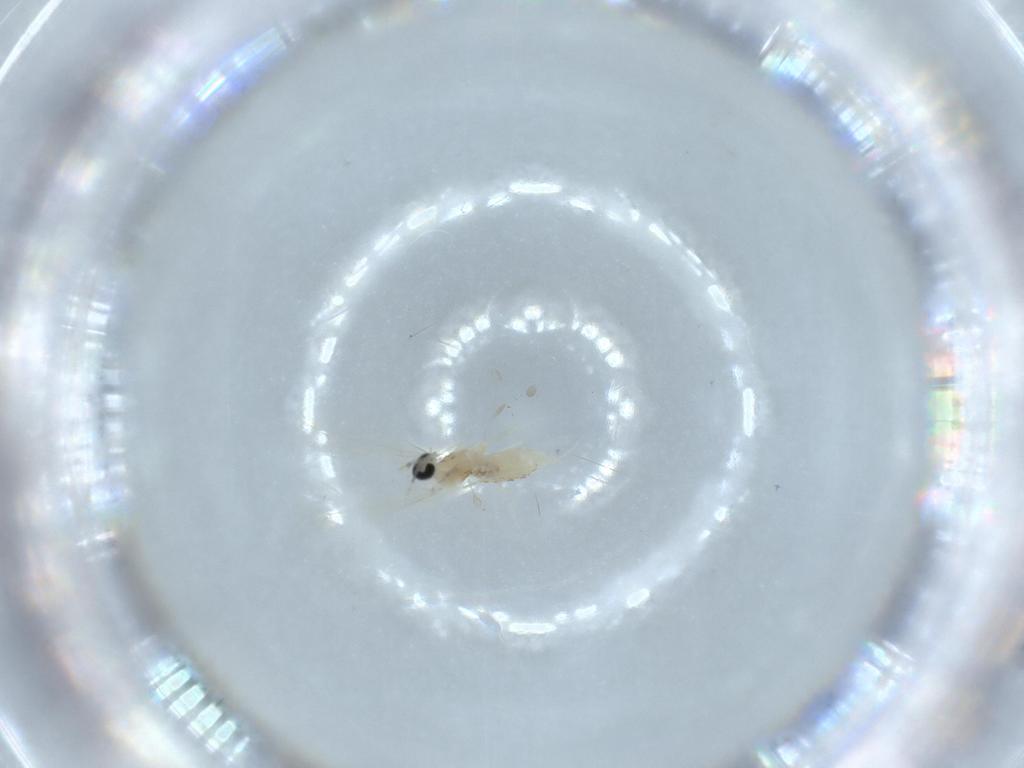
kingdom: Animalia
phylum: Arthropoda
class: Insecta
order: Diptera
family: Cecidomyiidae
